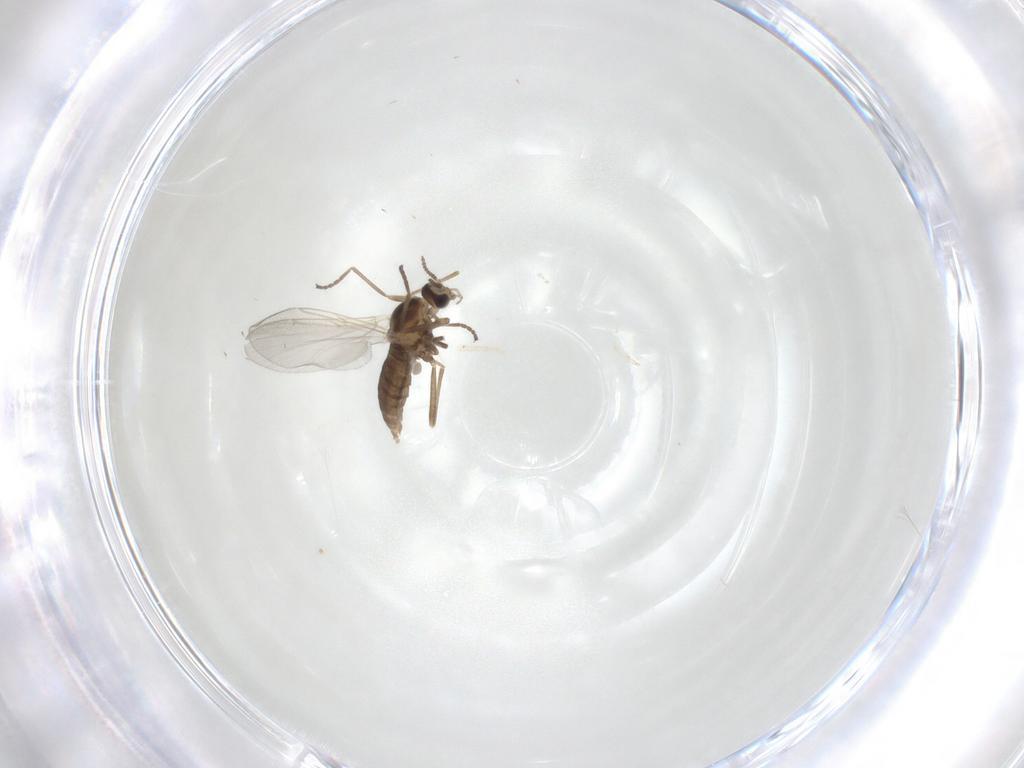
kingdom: Animalia
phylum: Arthropoda
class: Insecta
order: Diptera
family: Cecidomyiidae
